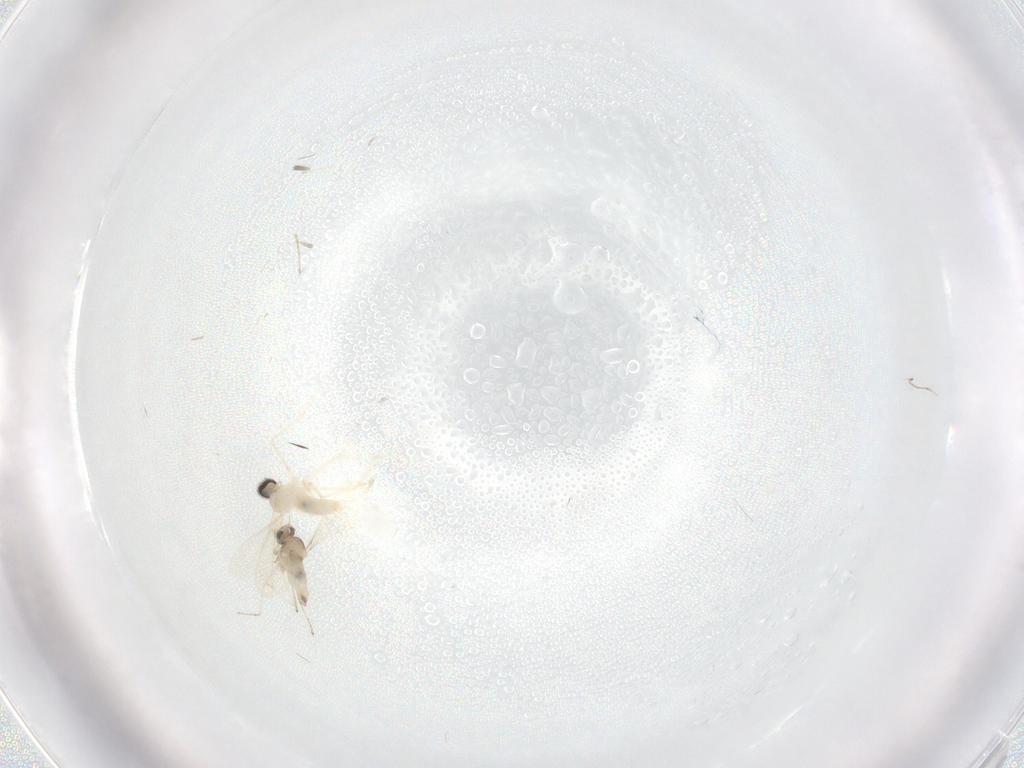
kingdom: Animalia
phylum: Arthropoda
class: Insecta
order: Diptera
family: Cecidomyiidae
